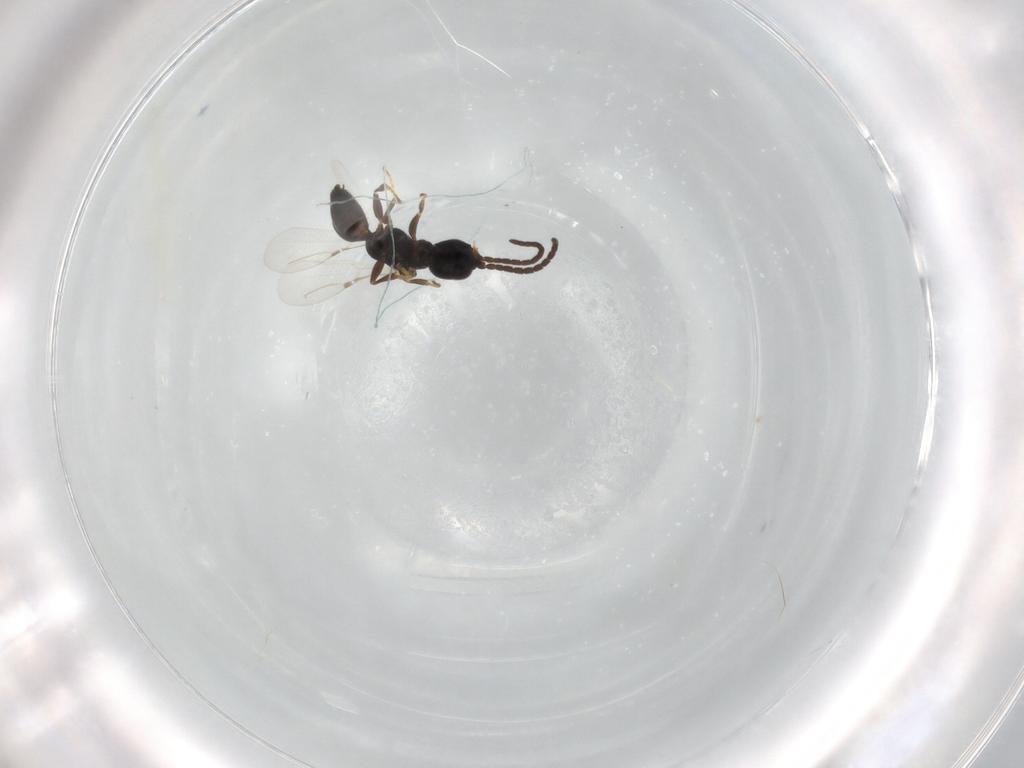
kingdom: Animalia
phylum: Arthropoda
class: Insecta
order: Hymenoptera
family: Bethylidae
